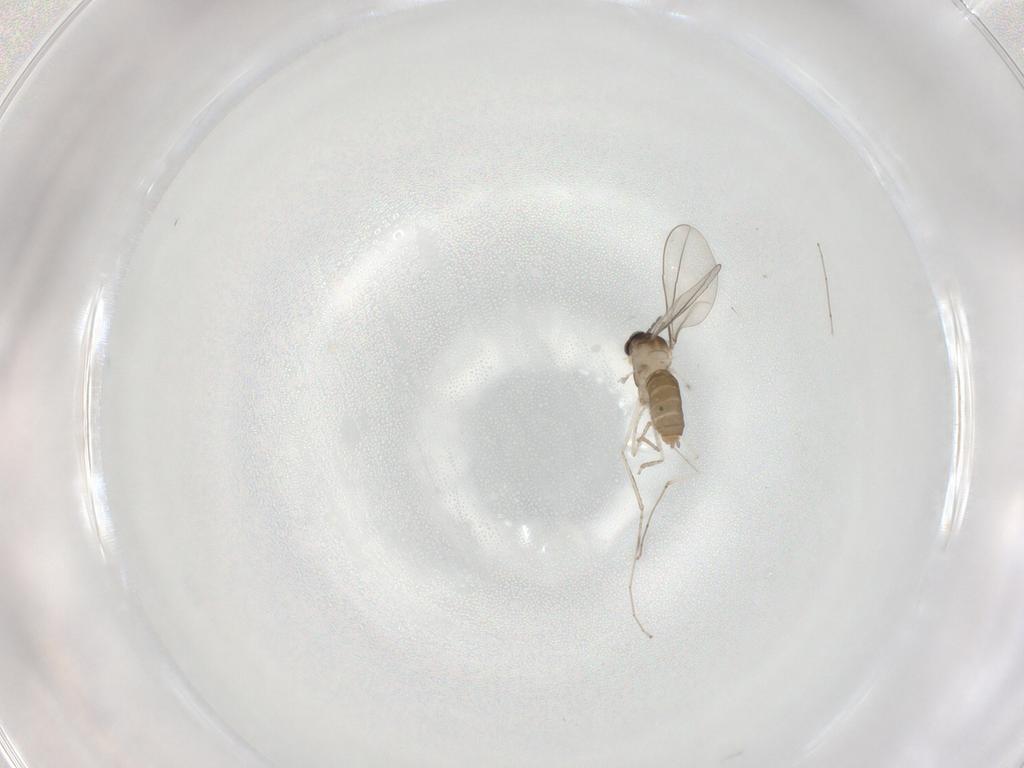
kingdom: Animalia
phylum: Arthropoda
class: Insecta
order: Diptera
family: Cecidomyiidae
